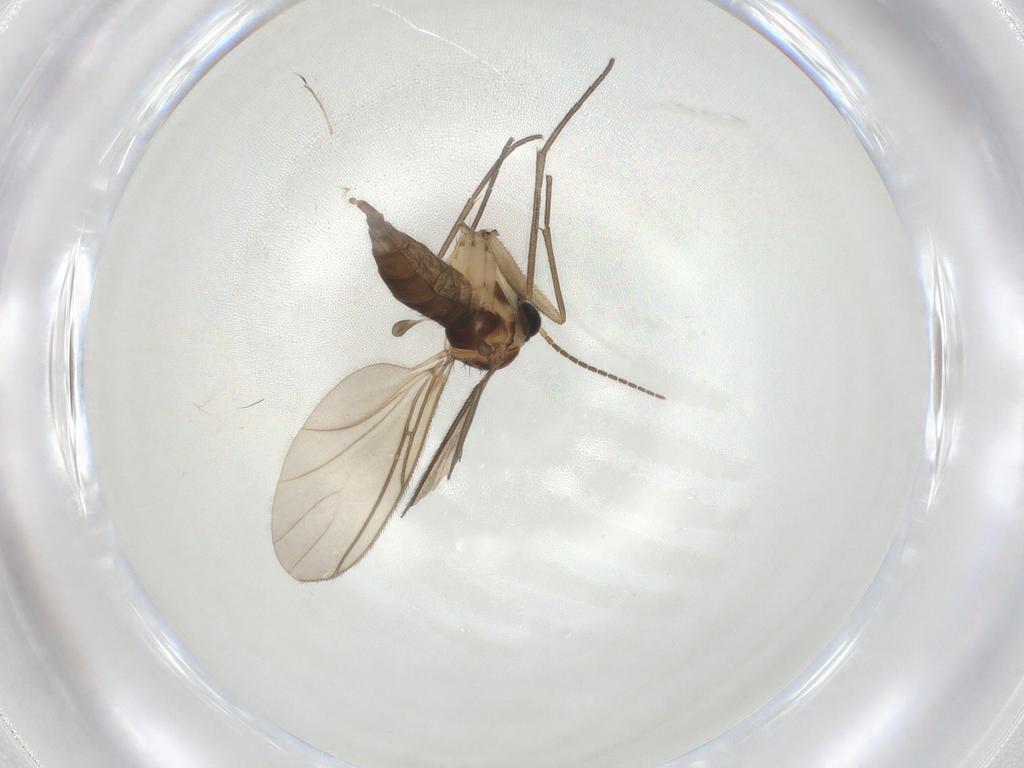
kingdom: Animalia
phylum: Arthropoda
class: Insecta
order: Diptera
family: Sciaridae
